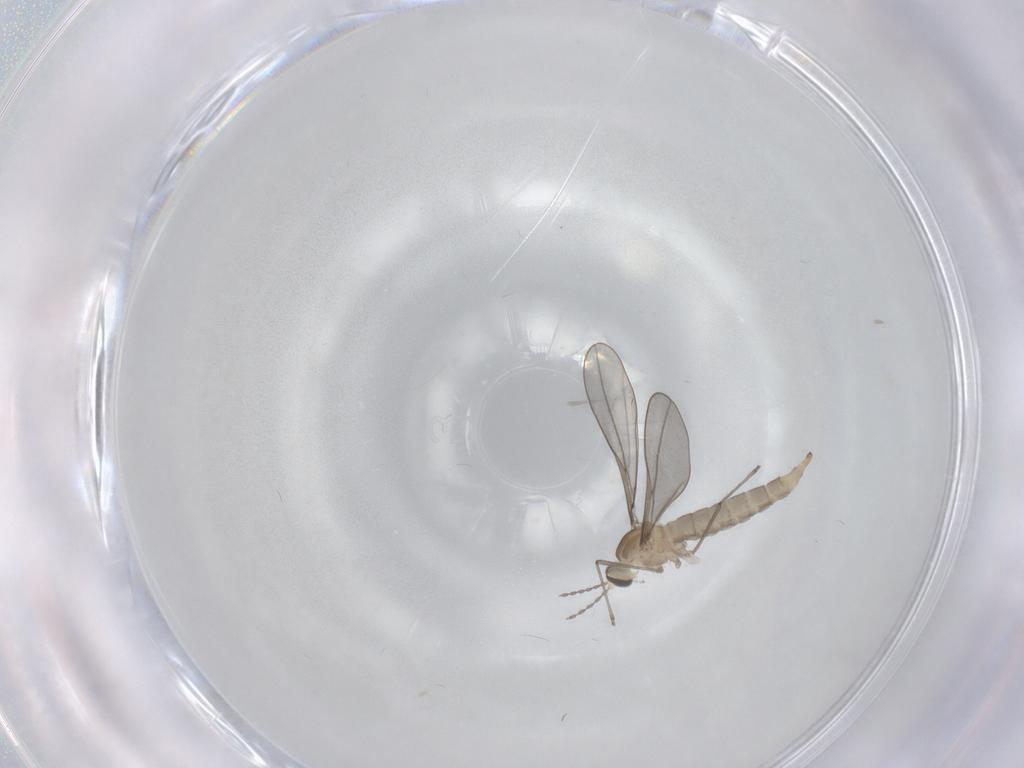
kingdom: Animalia
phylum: Arthropoda
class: Insecta
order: Diptera
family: Cecidomyiidae
